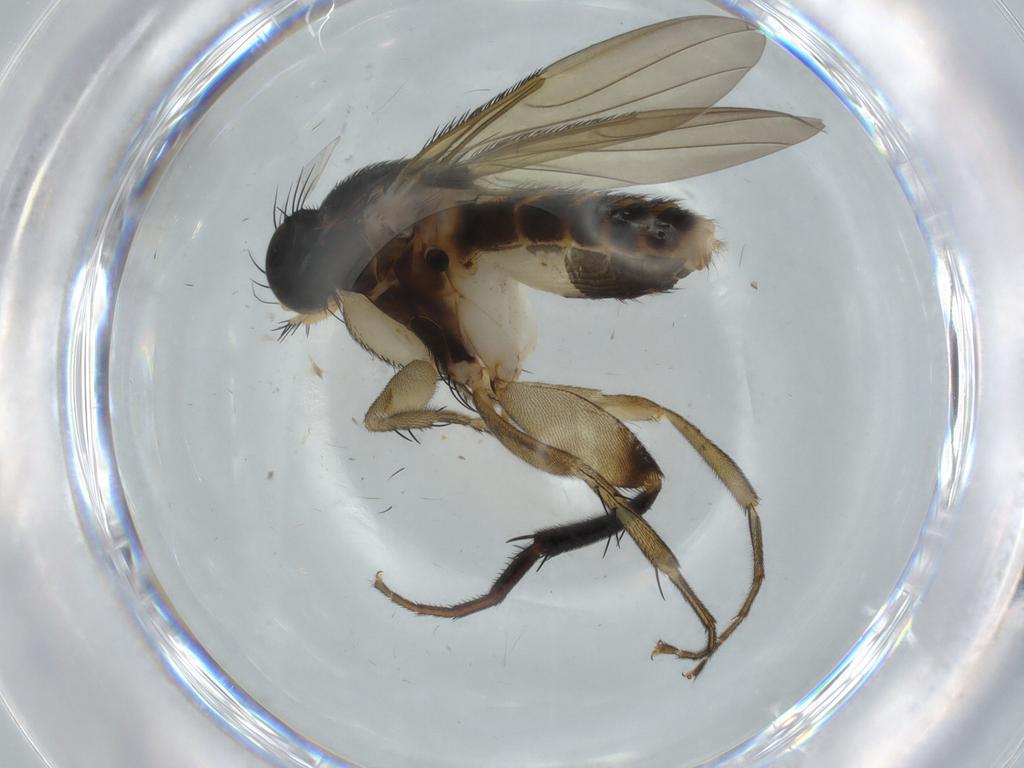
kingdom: Animalia
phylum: Arthropoda
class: Insecta
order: Diptera
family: Phoridae
